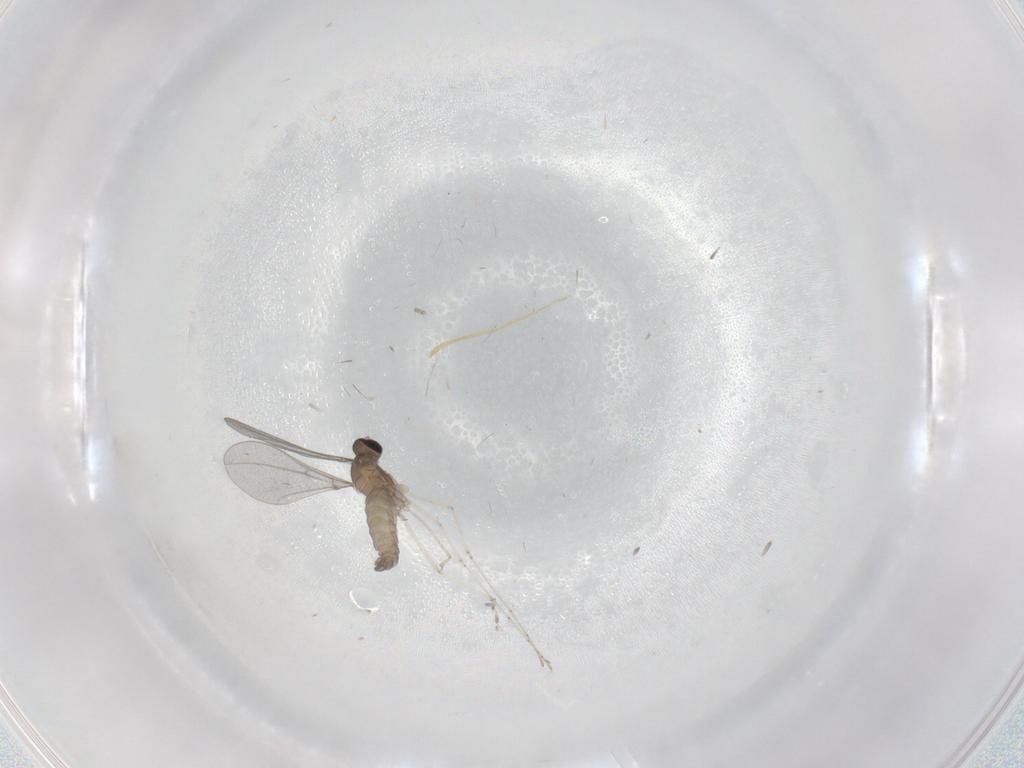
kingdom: Animalia
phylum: Arthropoda
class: Insecta
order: Diptera
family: Cecidomyiidae
